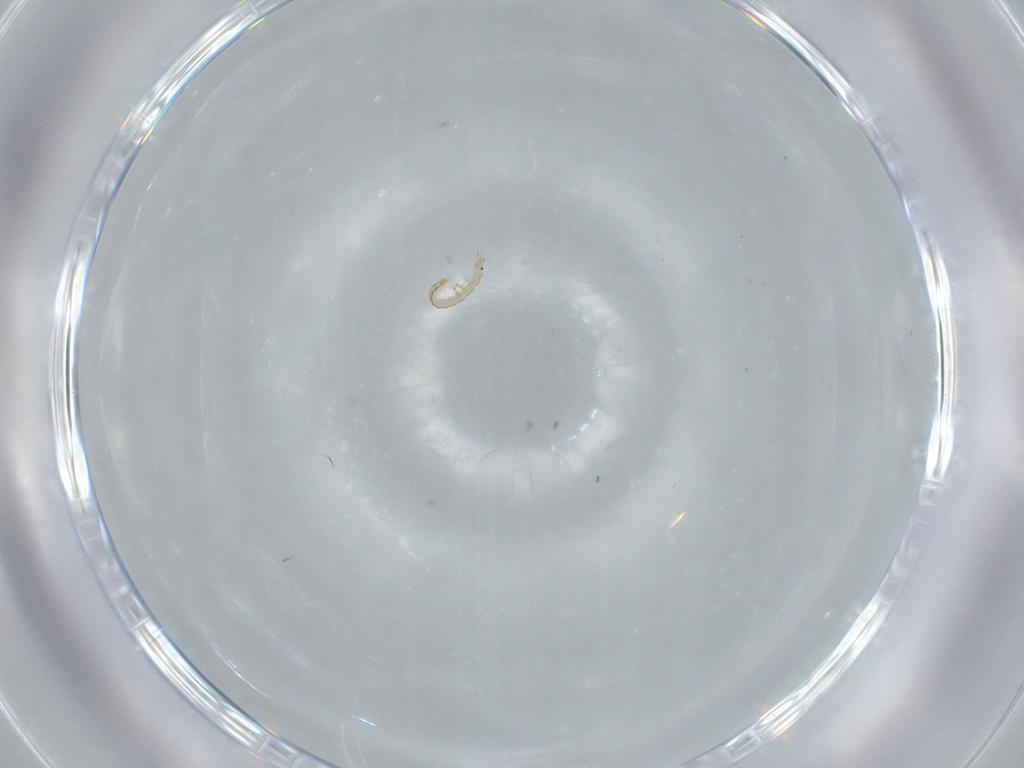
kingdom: Animalia
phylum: Arthropoda
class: Insecta
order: Neuroptera
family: Mantispidae
